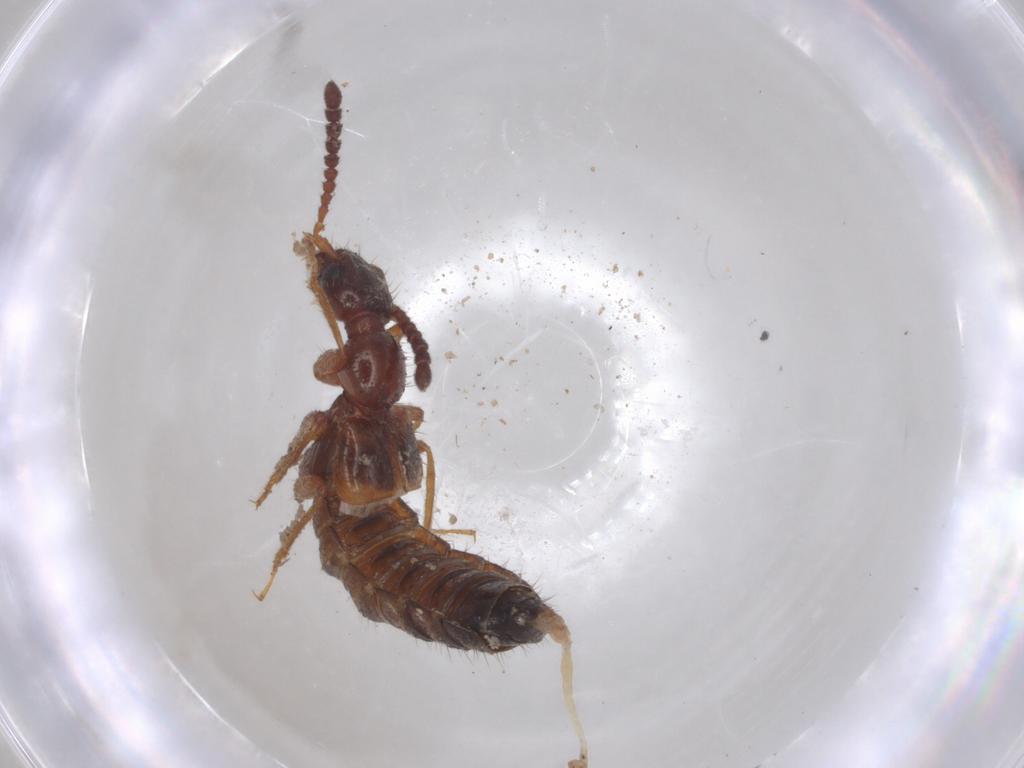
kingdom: Animalia
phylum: Arthropoda
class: Insecta
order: Coleoptera
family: Staphylinidae
